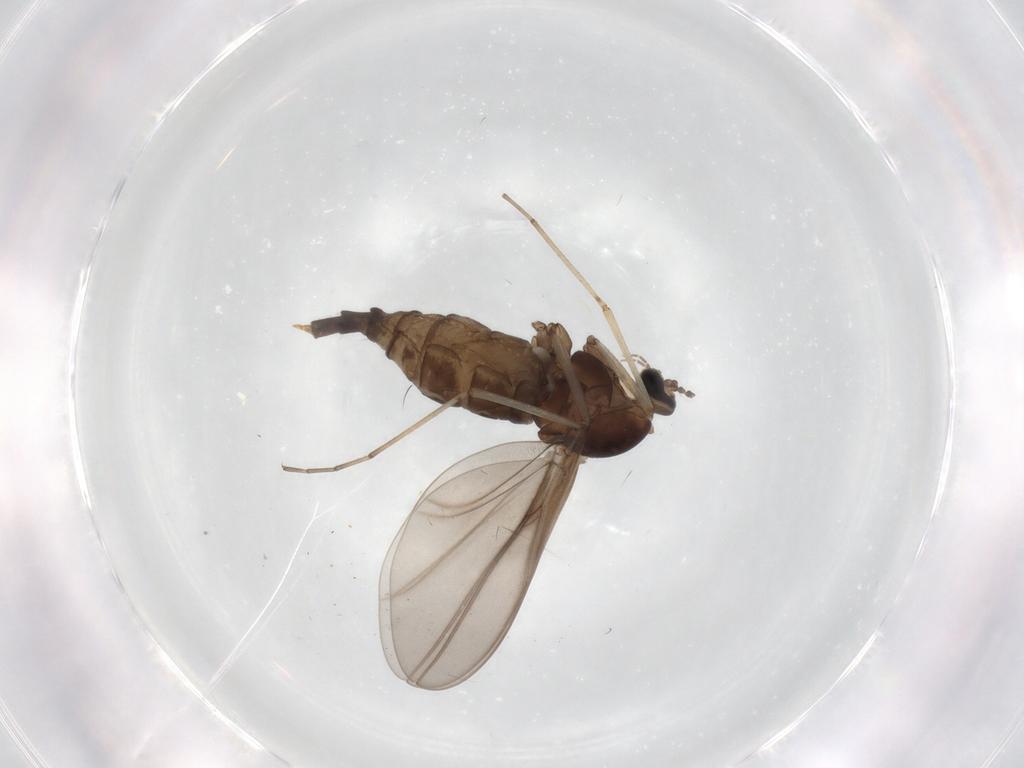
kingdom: Animalia
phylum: Arthropoda
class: Insecta
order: Diptera
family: Cecidomyiidae
